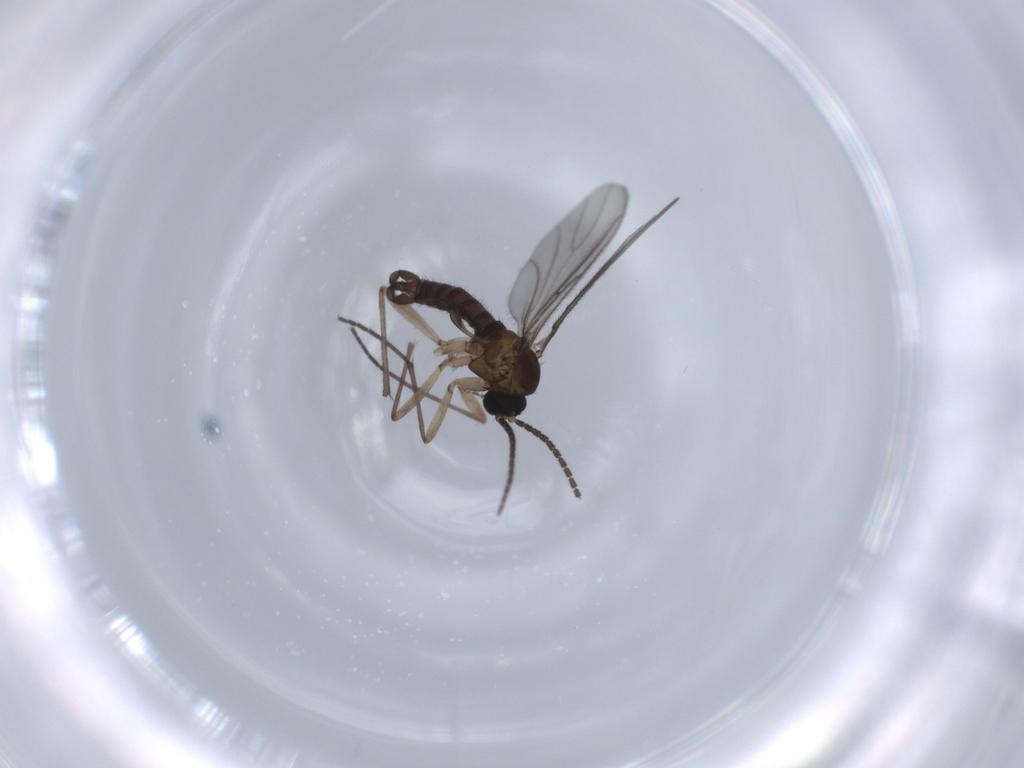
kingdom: Animalia
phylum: Arthropoda
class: Insecta
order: Diptera
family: Sciaridae
